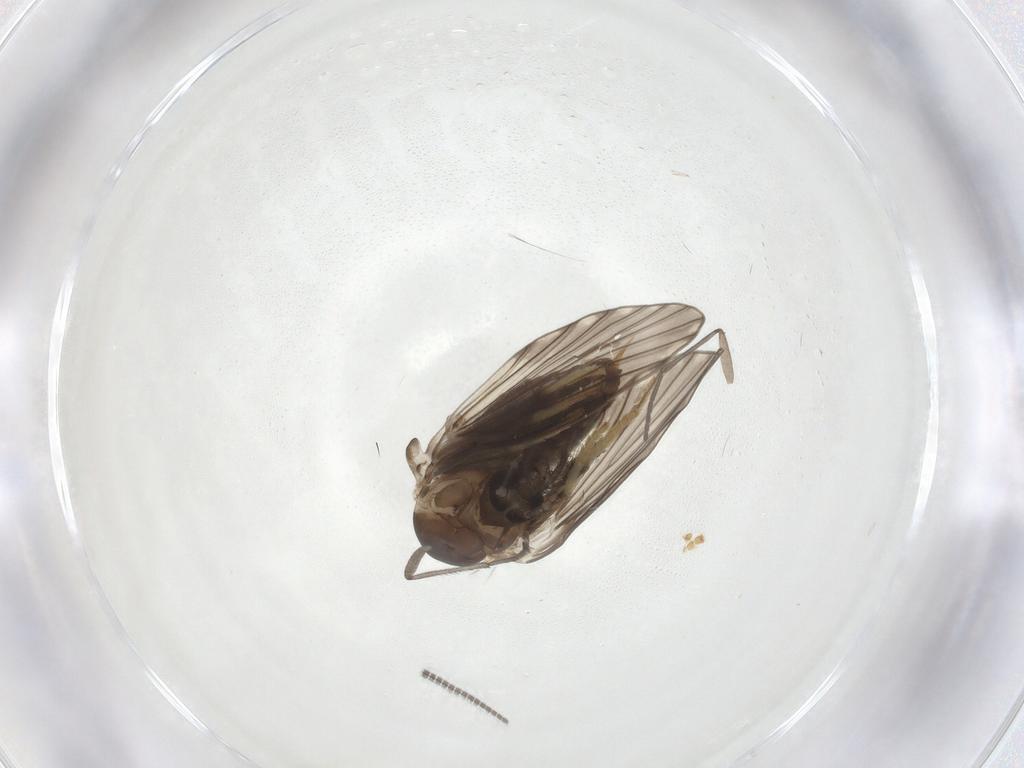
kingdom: Animalia
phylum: Arthropoda
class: Insecta
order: Diptera
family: Psychodidae
